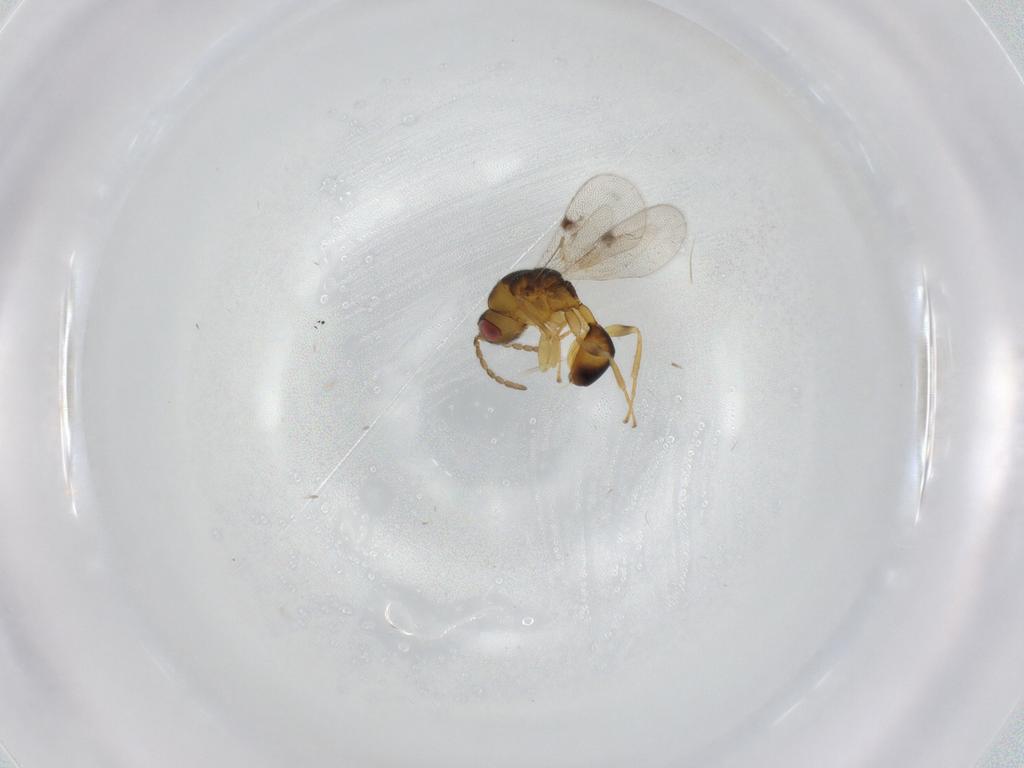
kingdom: Animalia
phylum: Arthropoda
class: Insecta
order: Hymenoptera
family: Eurytomidae
